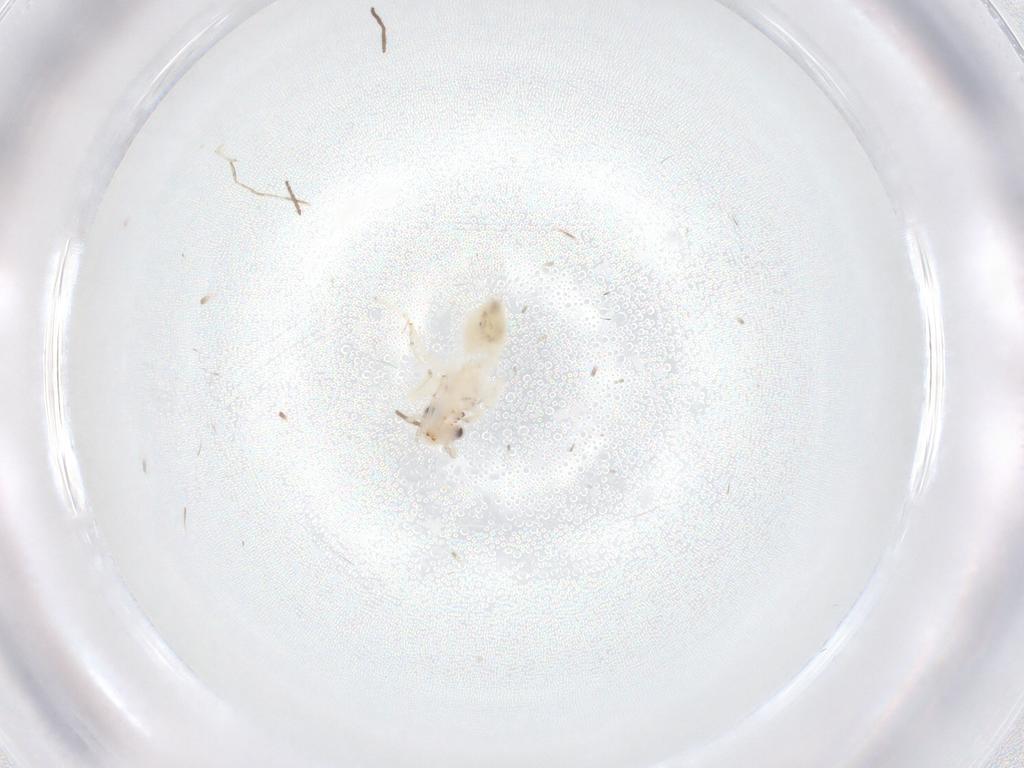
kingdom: Animalia
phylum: Arthropoda
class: Insecta
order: Psocodea
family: Lepidopsocidae
